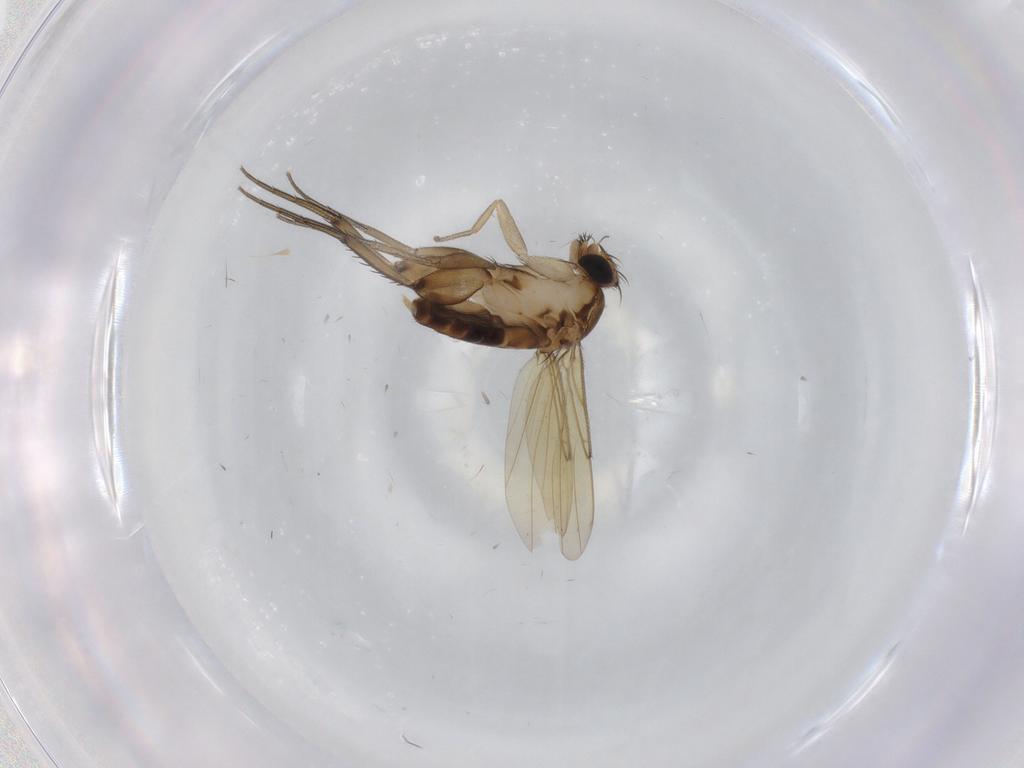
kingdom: Animalia
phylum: Arthropoda
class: Insecta
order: Diptera
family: Phoridae
